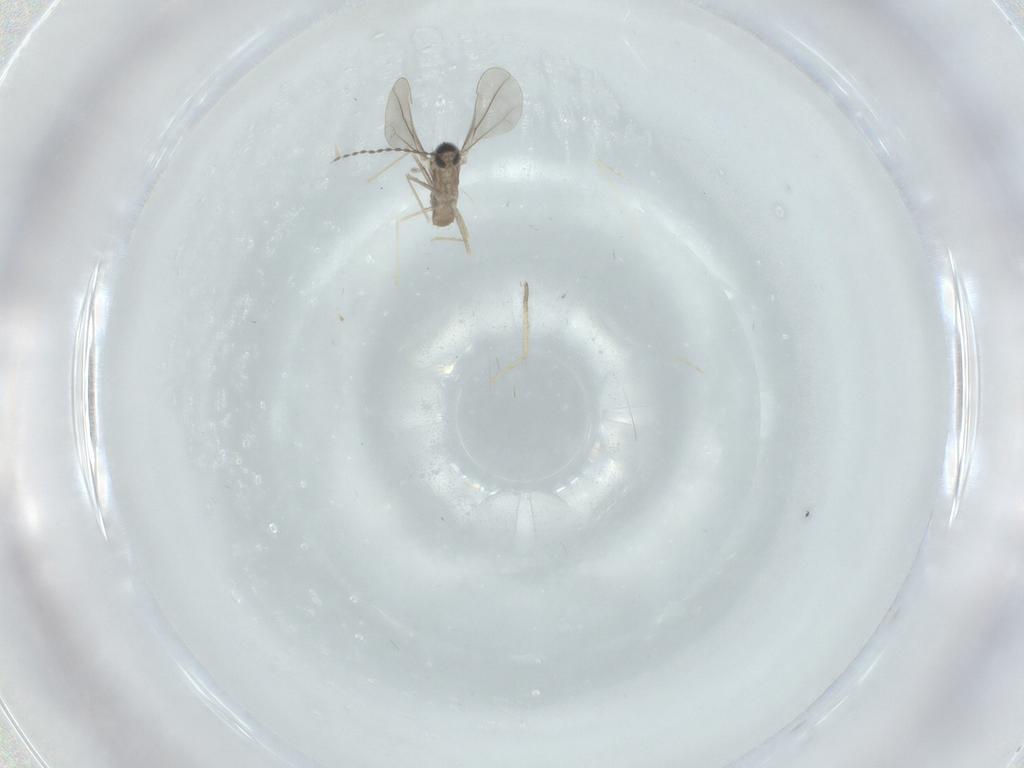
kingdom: Animalia
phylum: Arthropoda
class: Insecta
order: Diptera
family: Cecidomyiidae
